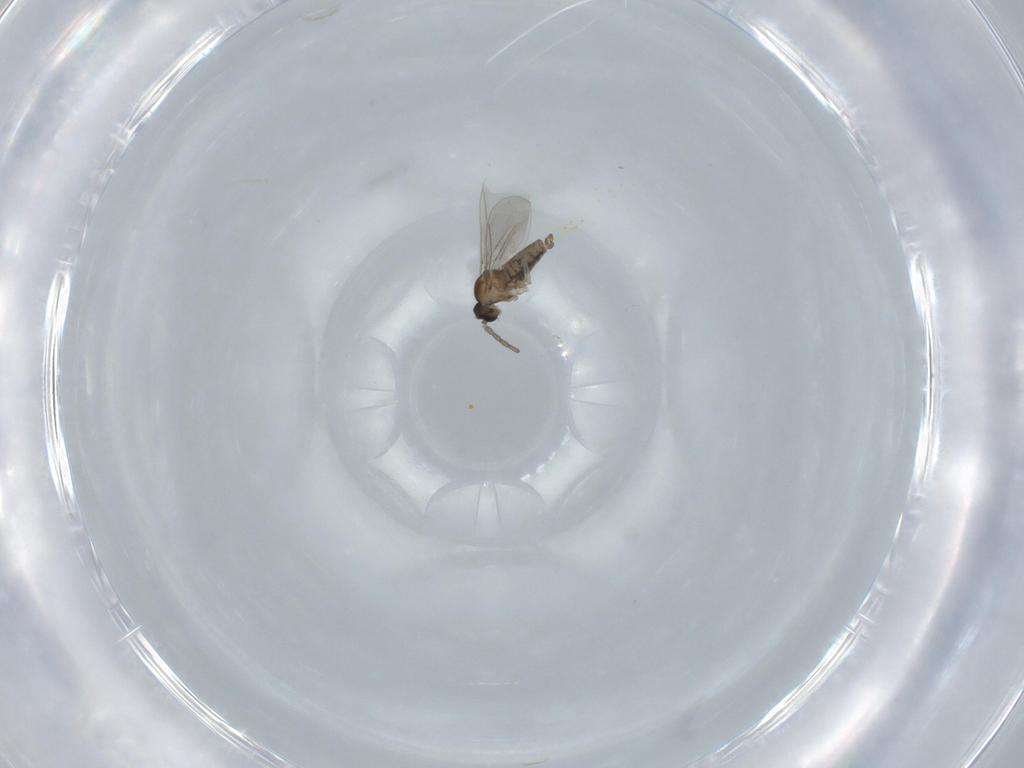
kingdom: Animalia
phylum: Arthropoda
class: Insecta
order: Diptera
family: Cecidomyiidae
